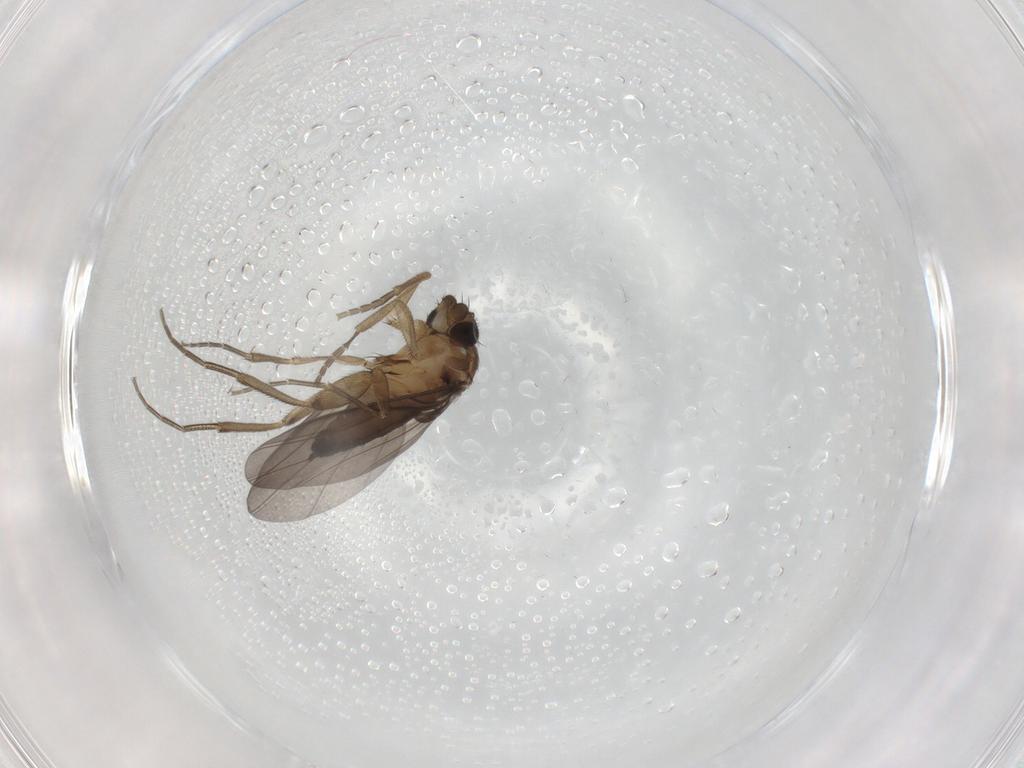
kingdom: Animalia
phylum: Arthropoda
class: Insecta
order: Diptera
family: Phoridae
